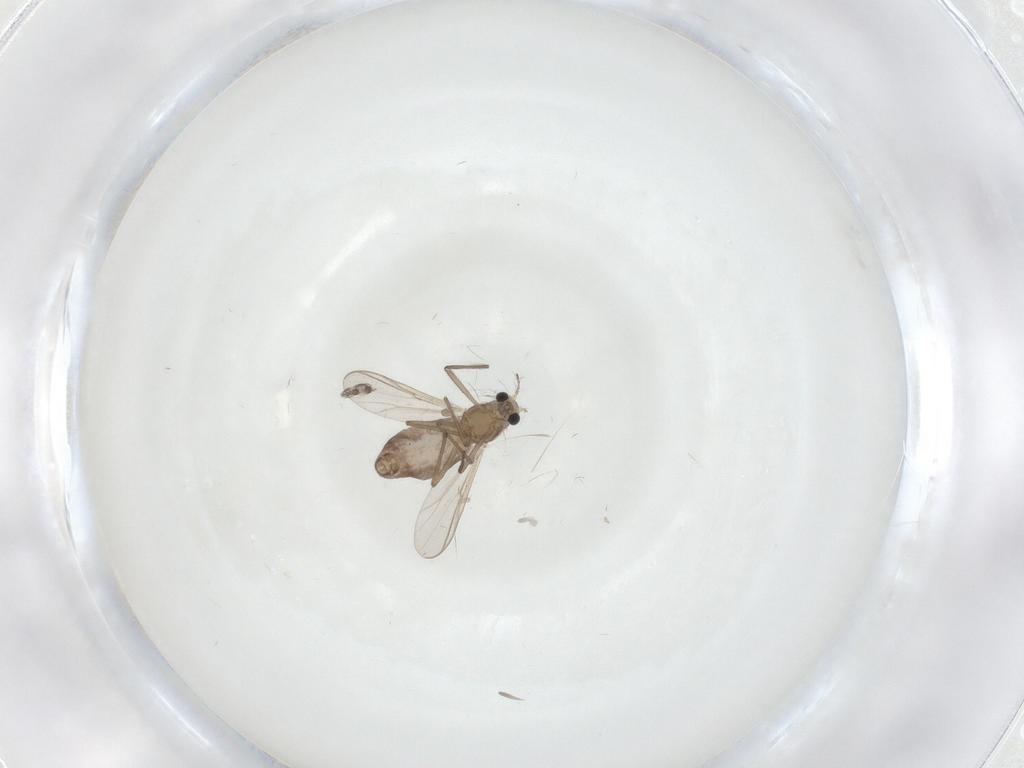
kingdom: Animalia
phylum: Arthropoda
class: Insecta
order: Diptera
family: Chironomidae
